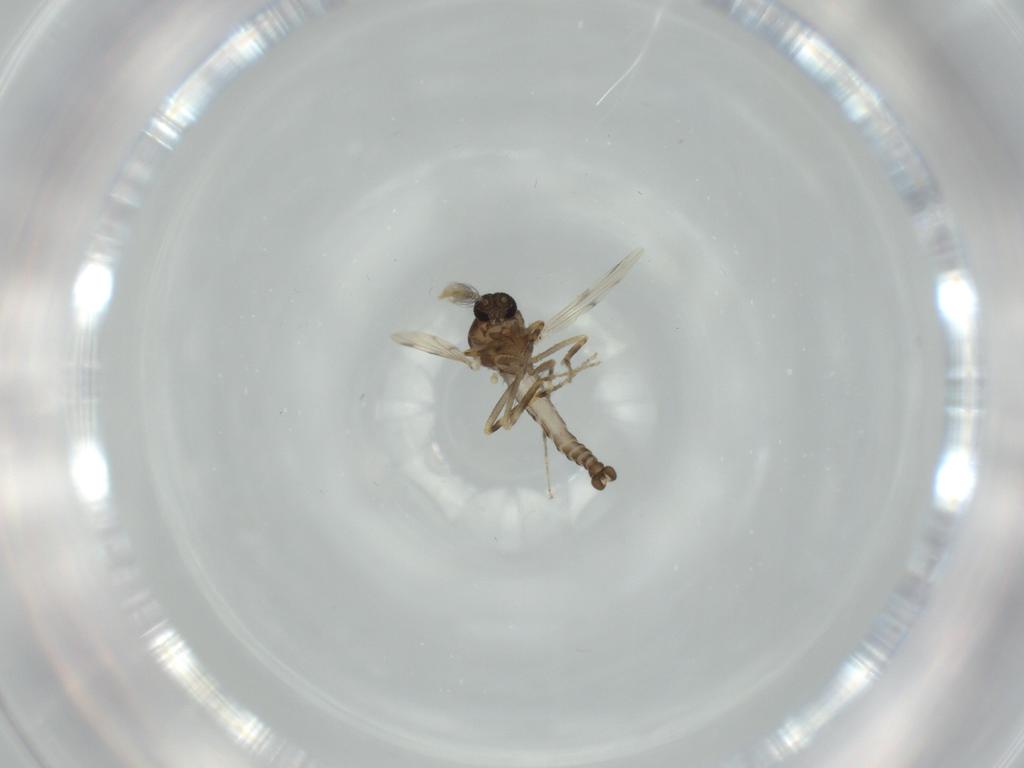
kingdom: Animalia
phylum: Arthropoda
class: Insecta
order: Diptera
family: Ceratopogonidae
